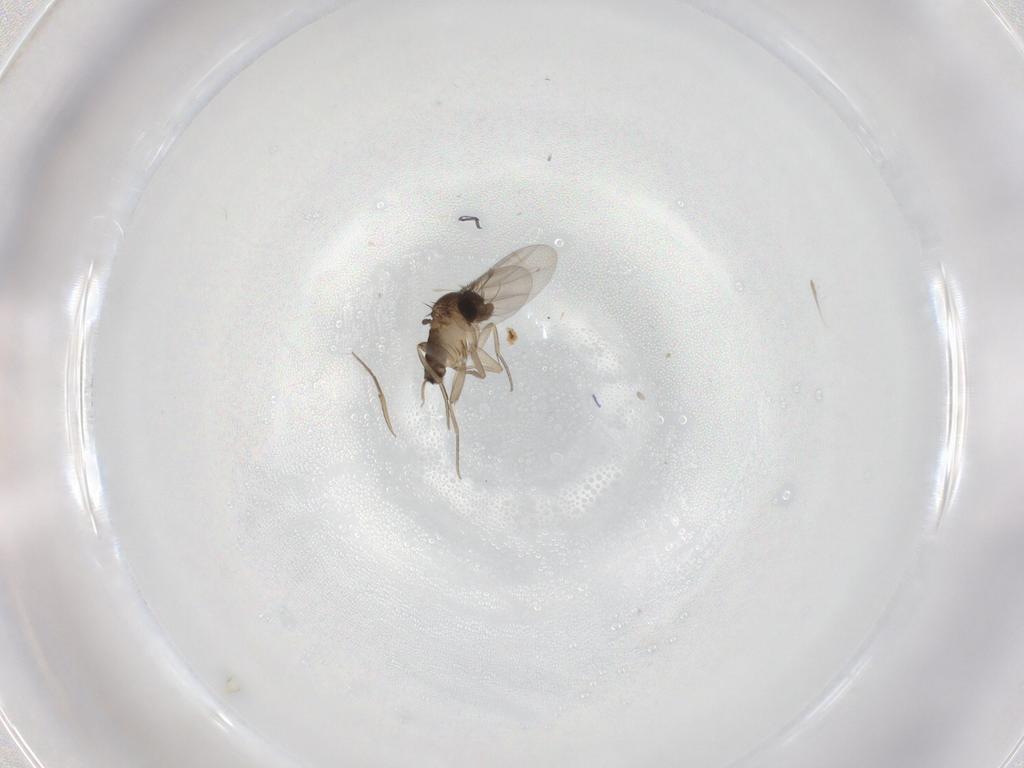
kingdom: Animalia
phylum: Arthropoda
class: Insecta
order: Diptera
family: Phoridae
